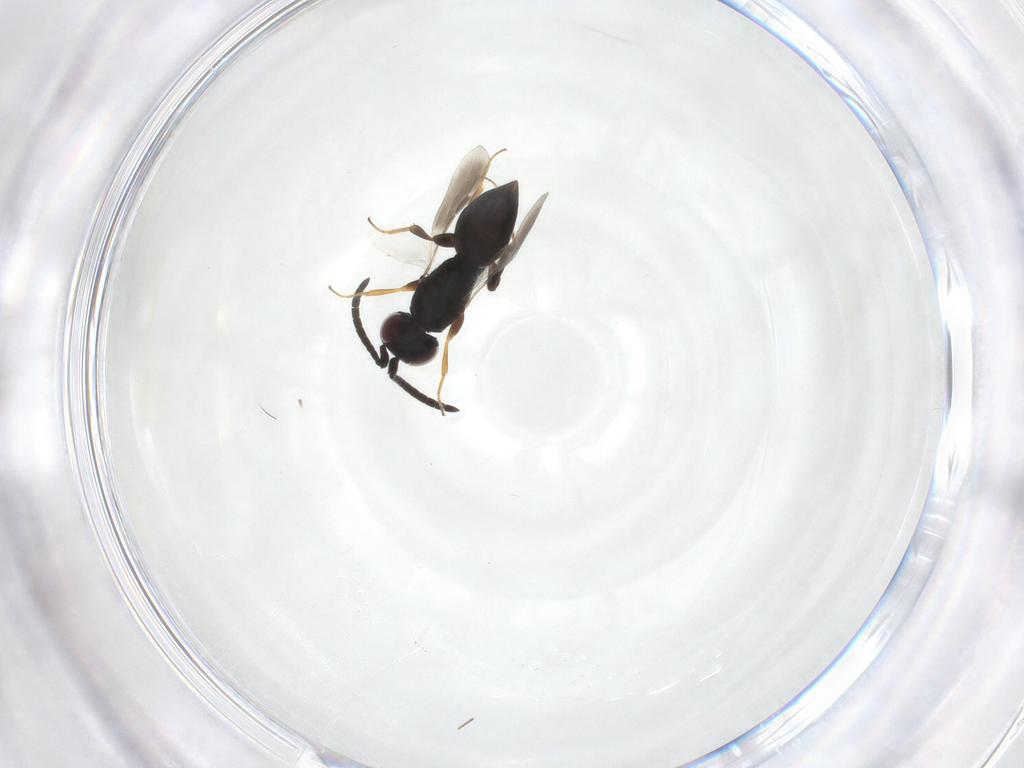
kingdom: Animalia
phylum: Arthropoda
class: Insecta
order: Hymenoptera
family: Megaspilidae
